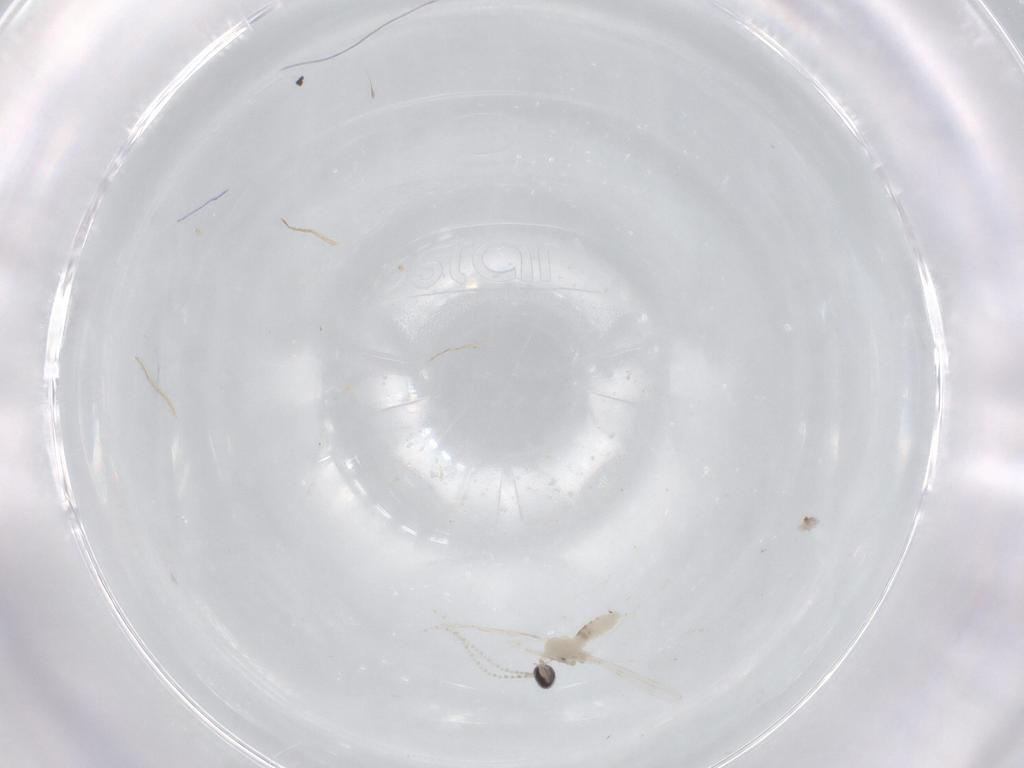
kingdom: Animalia
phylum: Arthropoda
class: Insecta
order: Diptera
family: Cecidomyiidae
